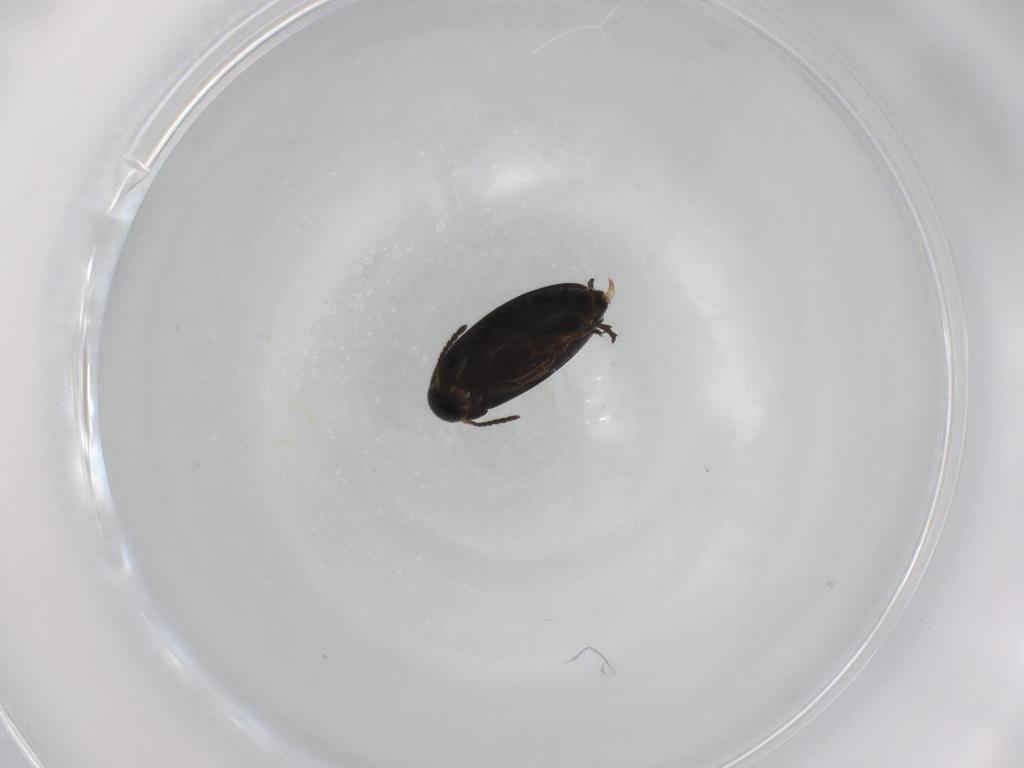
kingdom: Animalia
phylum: Arthropoda
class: Insecta
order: Coleoptera
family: Scraptiidae
